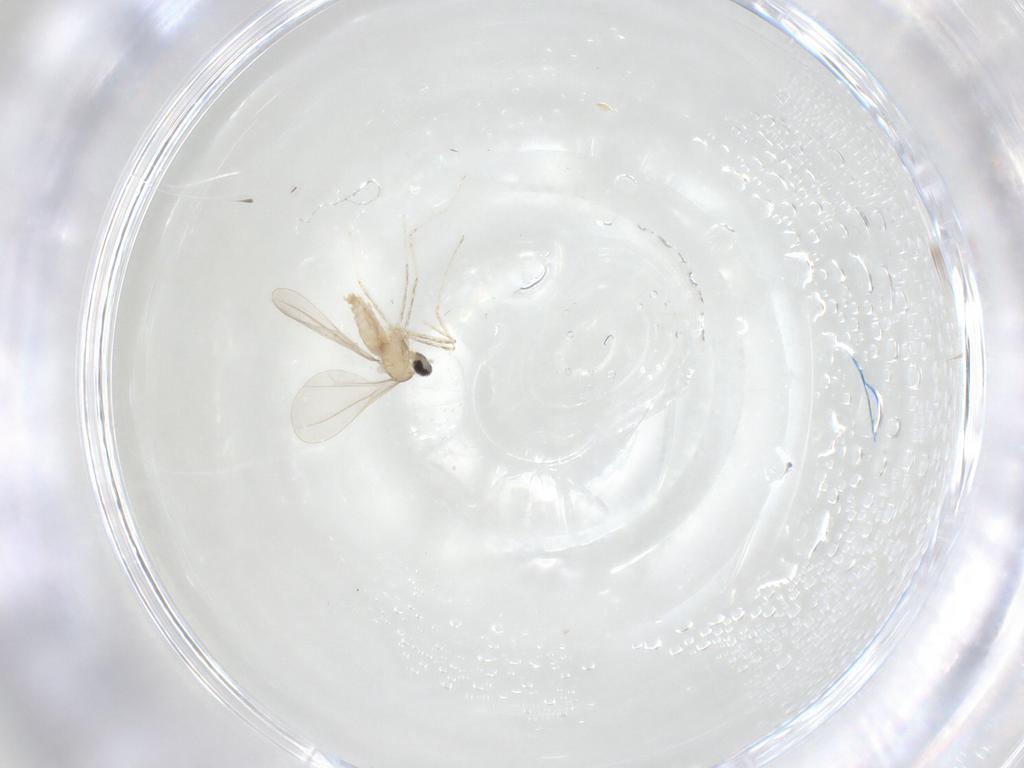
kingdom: Animalia
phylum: Arthropoda
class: Insecta
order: Diptera
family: Cecidomyiidae
